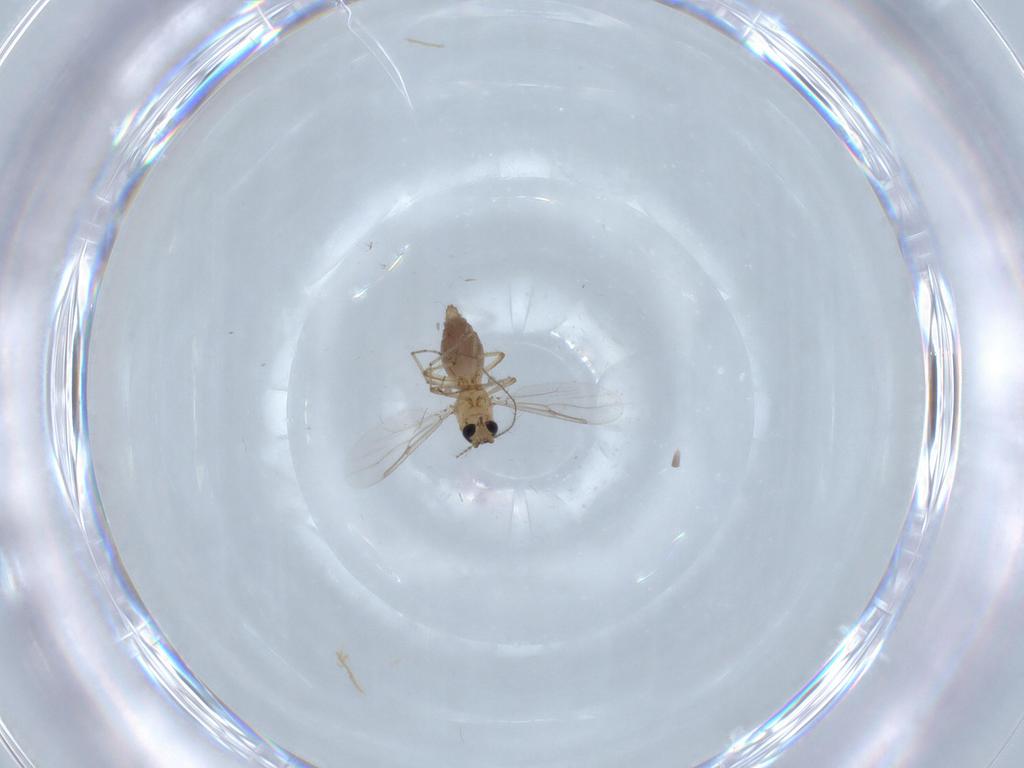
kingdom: Animalia
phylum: Arthropoda
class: Insecta
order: Diptera
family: Ceratopogonidae
